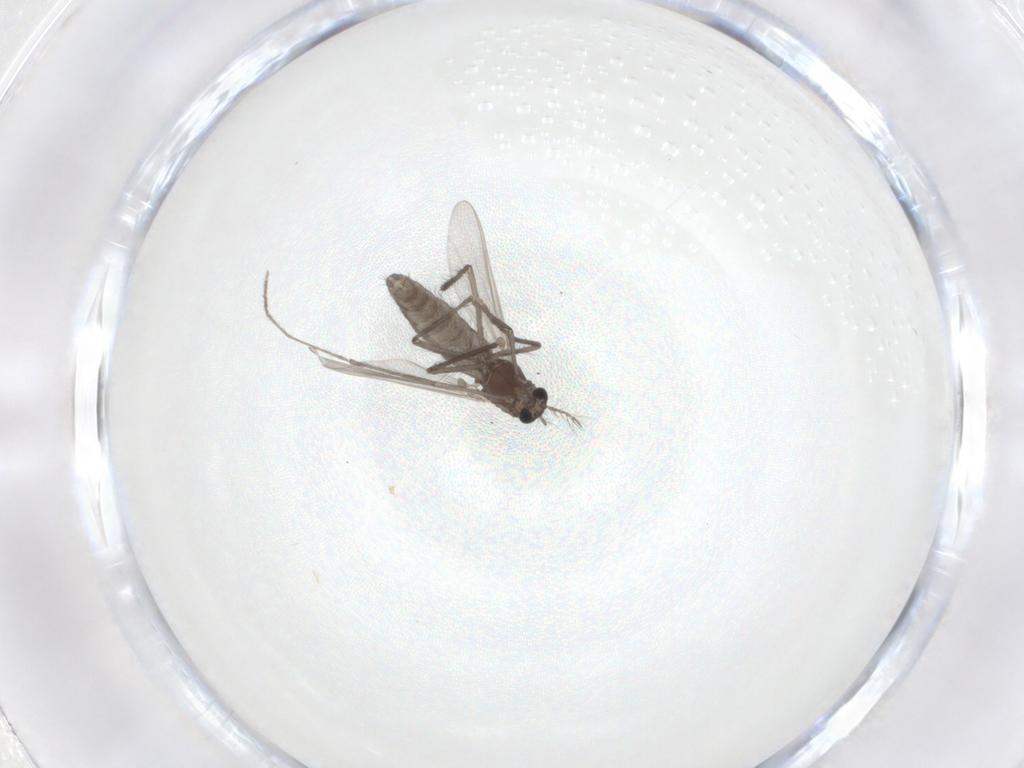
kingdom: Animalia
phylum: Arthropoda
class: Insecta
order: Diptera
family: Chironomidae
